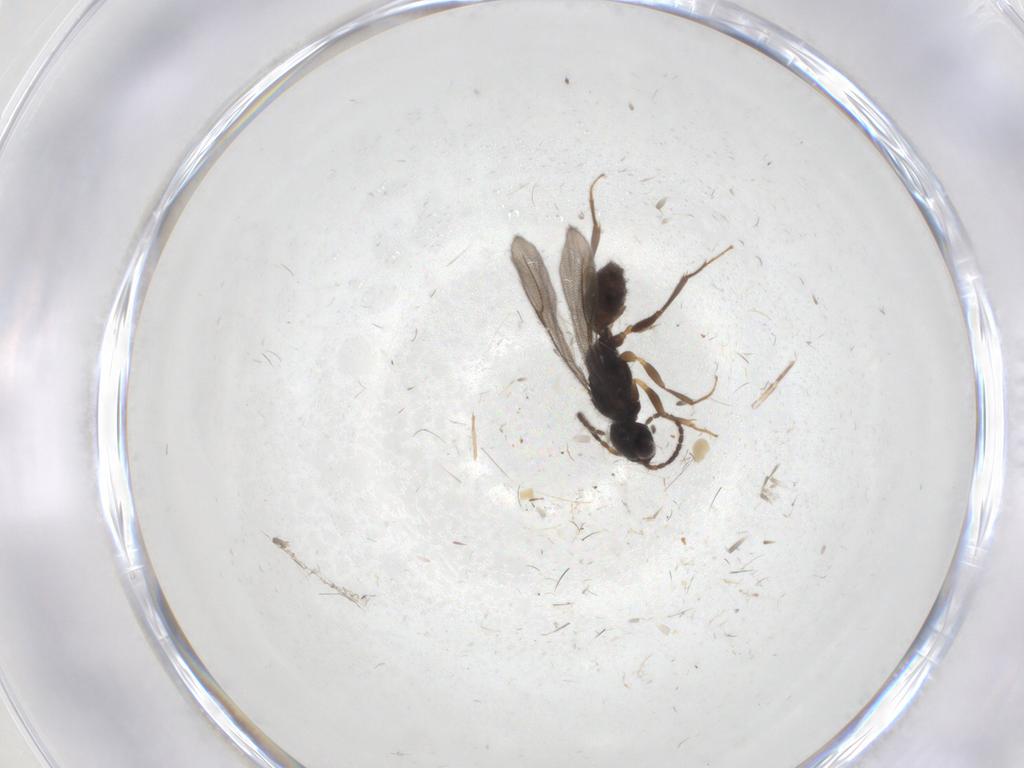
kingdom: Animalia
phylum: Arthropoda
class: Insecta
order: Hymenoptera
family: Bethylidae
